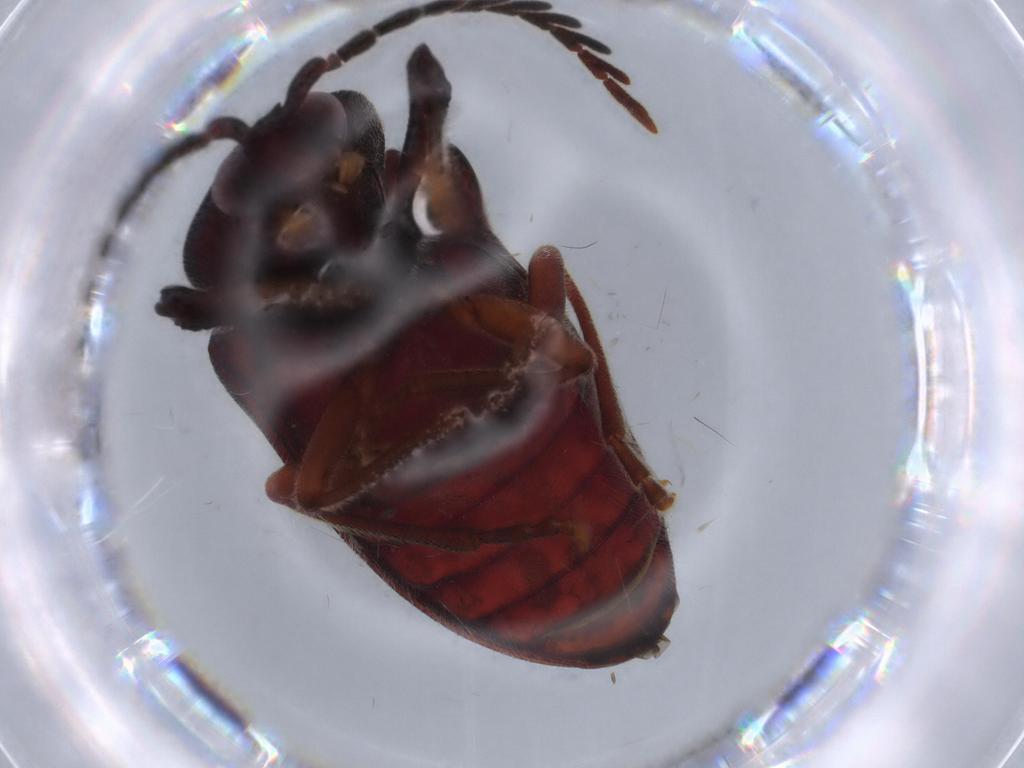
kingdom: Animalia
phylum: Arthropoda
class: Insecta
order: Coleoptera
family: Cerophytidae
